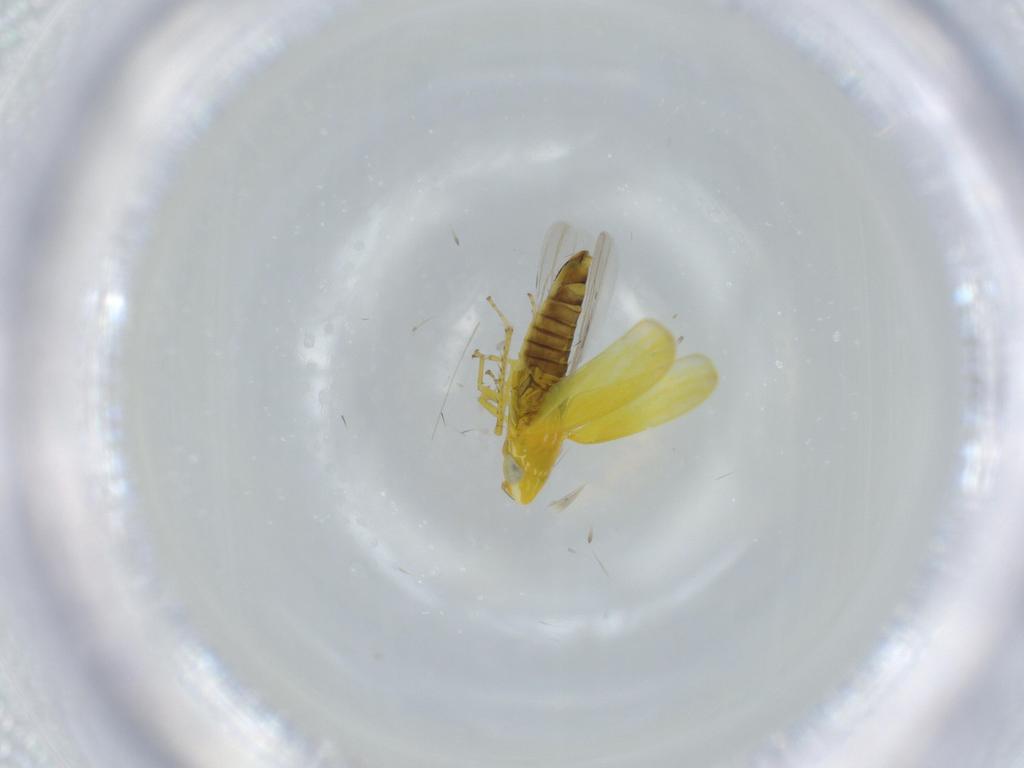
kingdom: Animalia
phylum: Arthropoda
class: Insecta
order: Hemiptera
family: Cicadellidae
